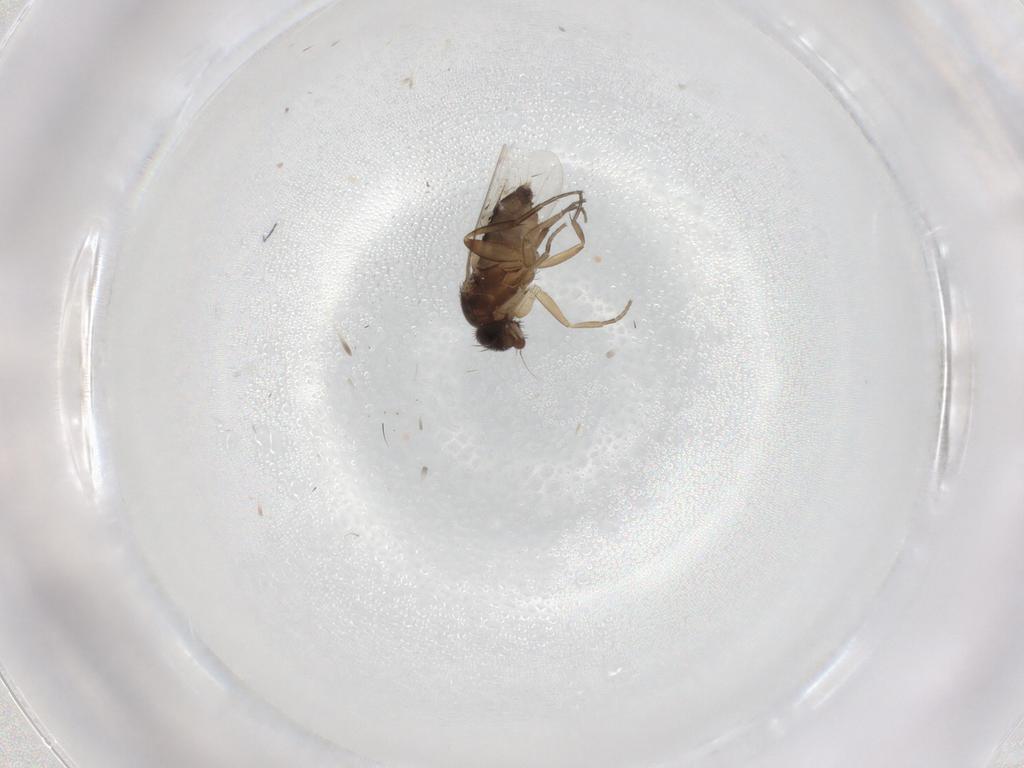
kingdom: Animalia
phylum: Arthropoda
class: Insecta
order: Diptera
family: Phoridae
